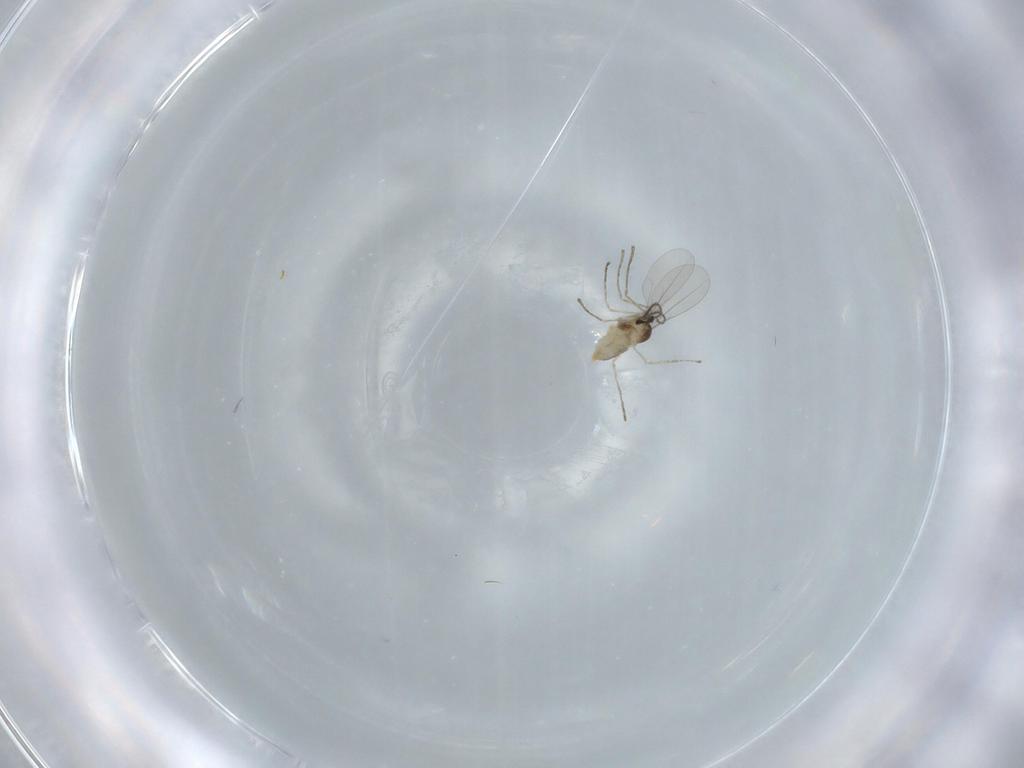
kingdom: Animalia
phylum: Arthropoda
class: Insecta
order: Diptera
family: Cecidomyiidae
